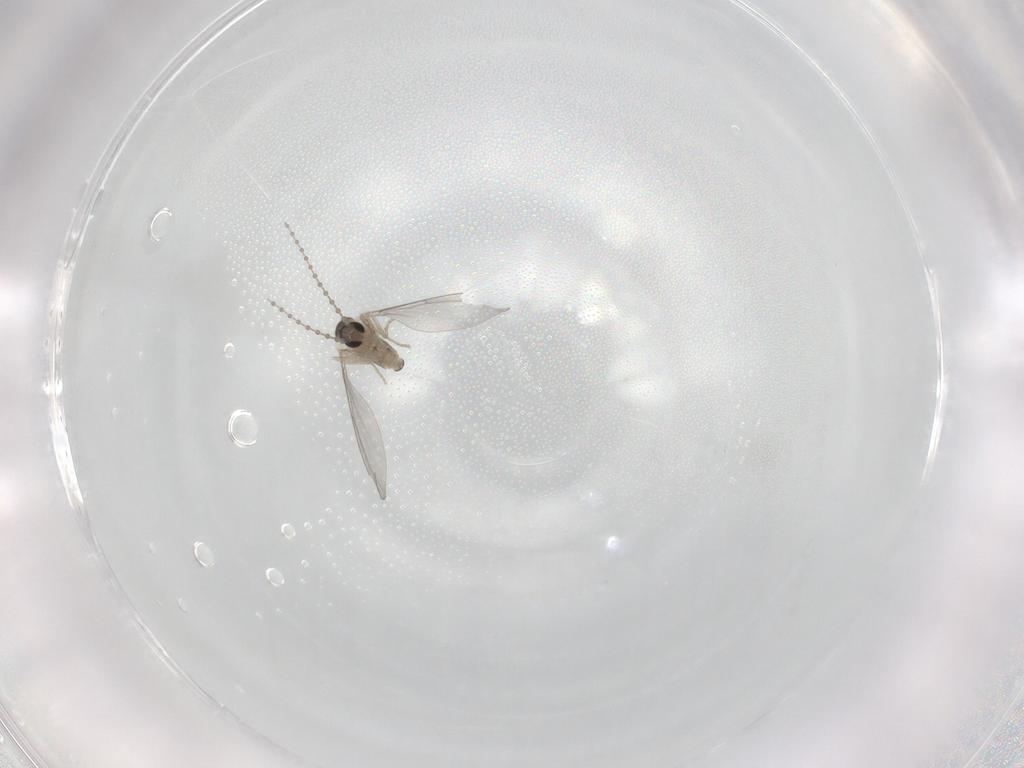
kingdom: Animalia
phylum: Arthropoda
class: Insecta
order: Diptera
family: Cecidomyiidae
